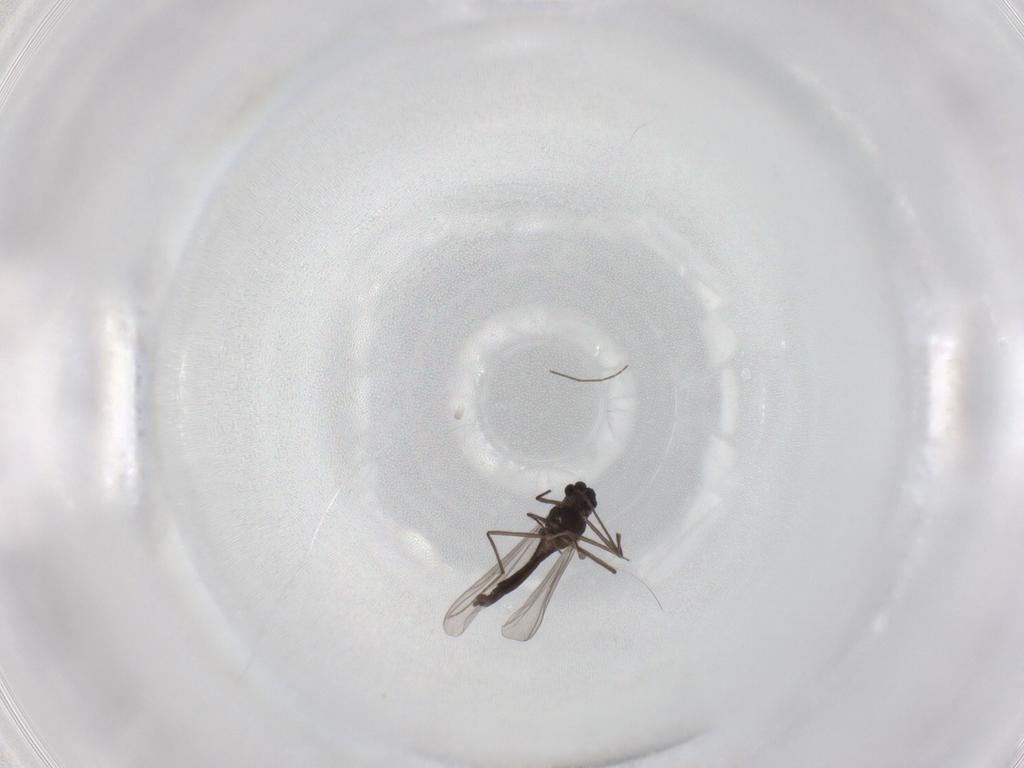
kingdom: Animalia
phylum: Arthropoda
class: Insecta
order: Diptera
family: Chironomidae
